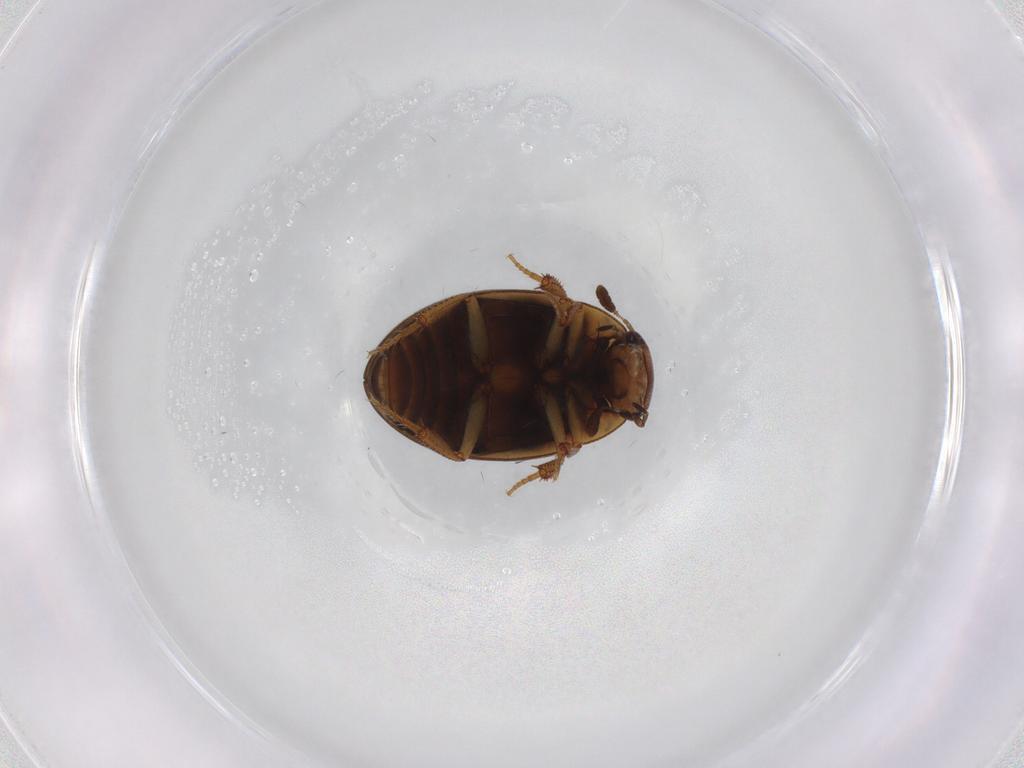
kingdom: Animalia
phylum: Arthropoda
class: Insecta
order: Coleoptera
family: Hydrophilidae
